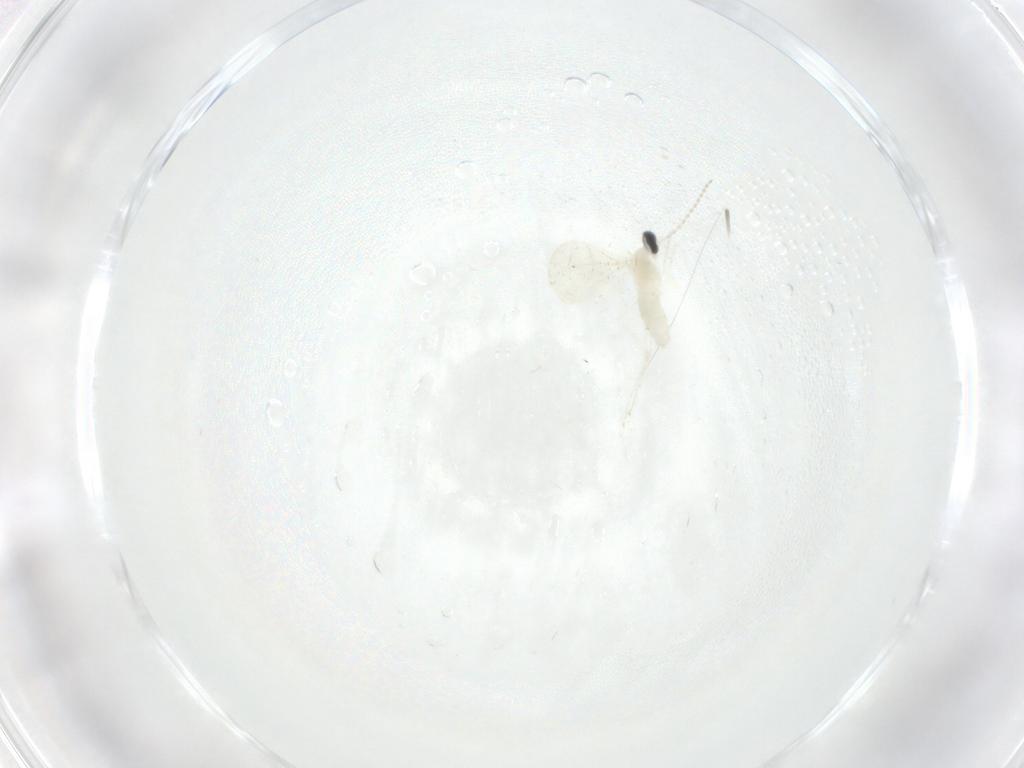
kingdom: Animalia
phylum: Arthropoda
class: Insecta
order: Diptera
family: Cecidomyiidae
